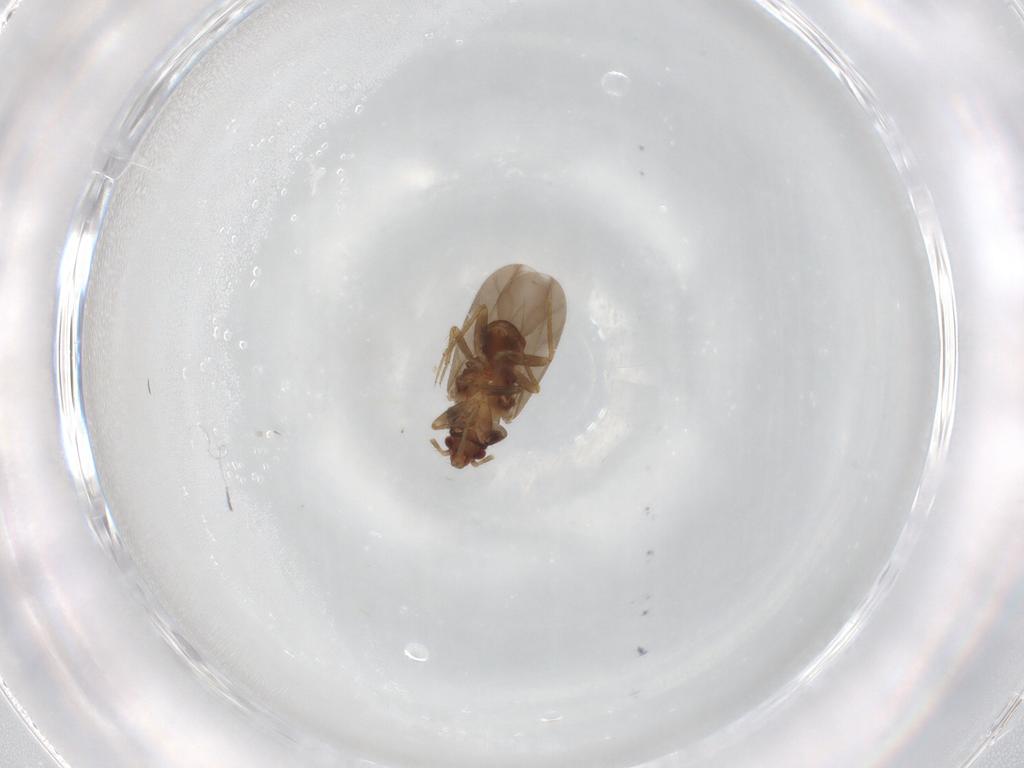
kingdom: Animalia
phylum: Arthropoda
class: Insecta
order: Hemiptera
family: Ceratocombidae
